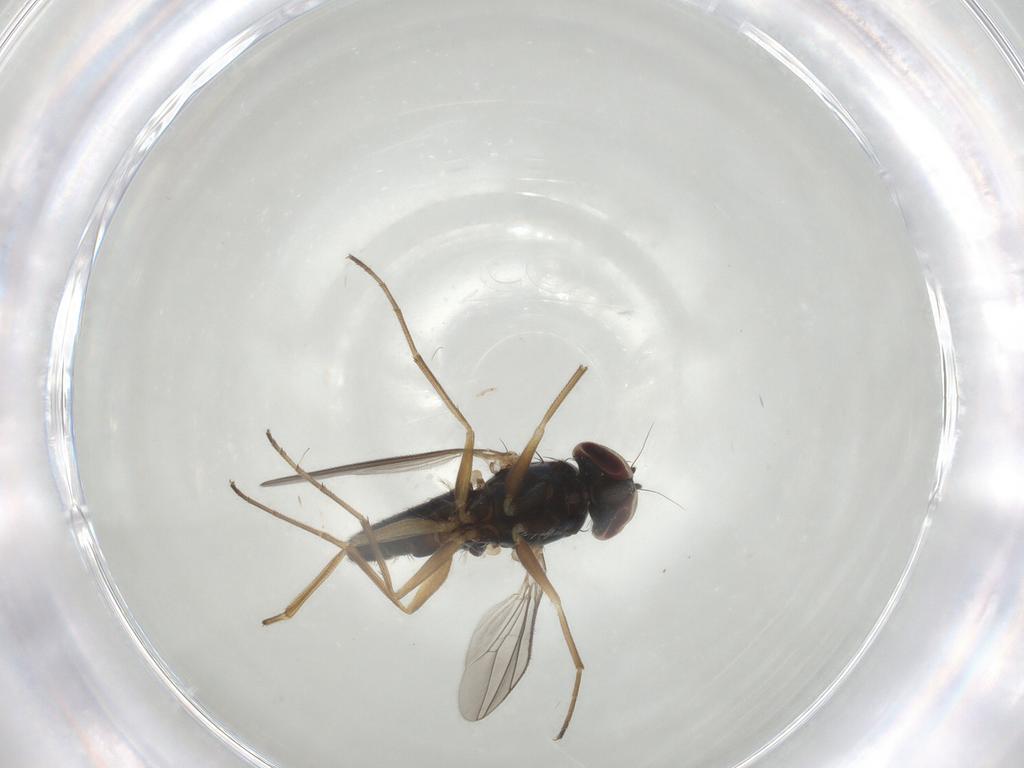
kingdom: Animalia
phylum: Arthropoda
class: Insecta
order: Diptera
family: Dolichopodidae
